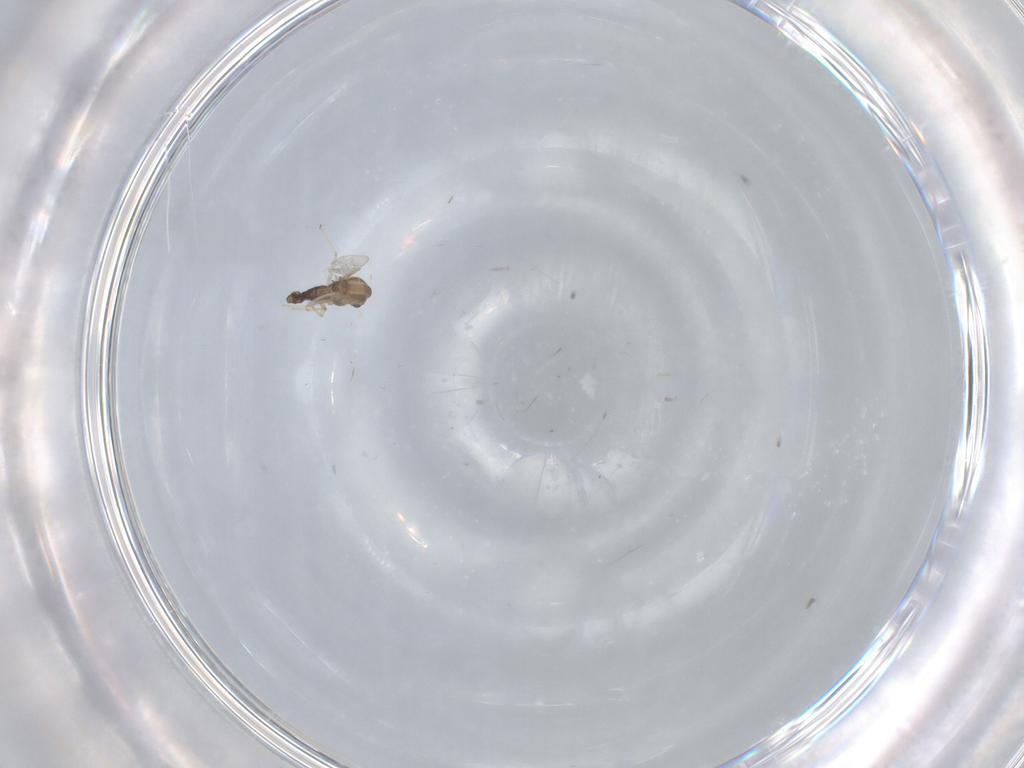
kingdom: Animalia
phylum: Arthropoda
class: Insecta
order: Diptera
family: Chironomidae
